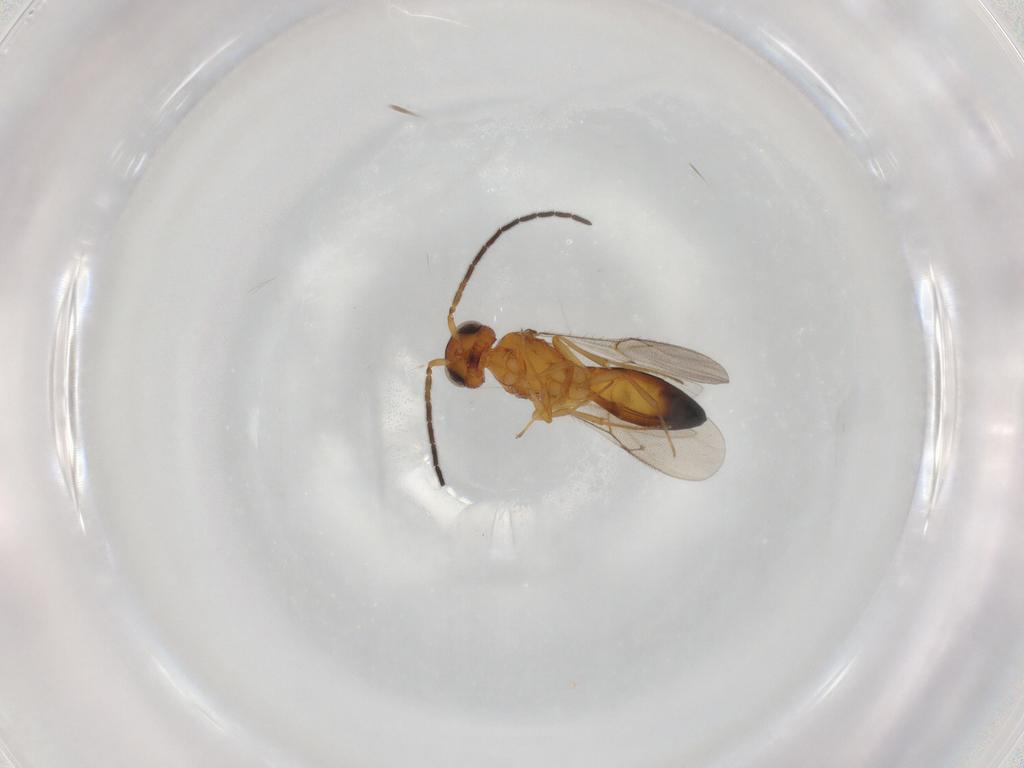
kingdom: Animalia
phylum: Arthropoda
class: Insecta
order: Hymenoptera
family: Scelionidae
